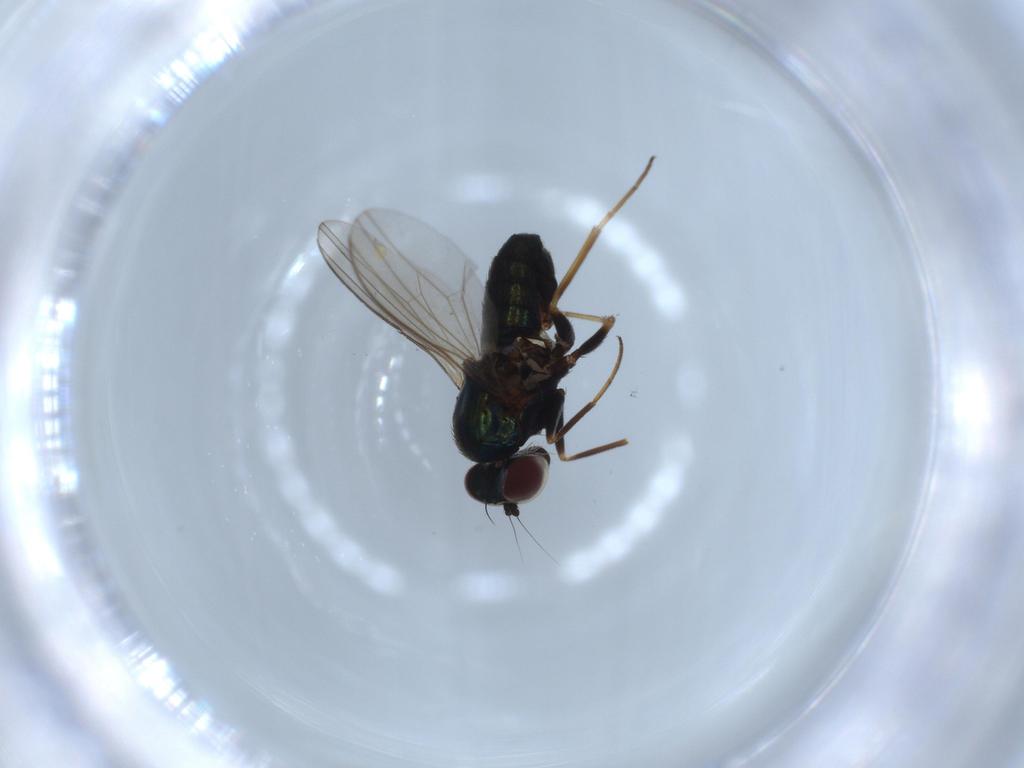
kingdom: Animalia
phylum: Arthropoda
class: Insecta
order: Diptera
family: Dolichopodidae
